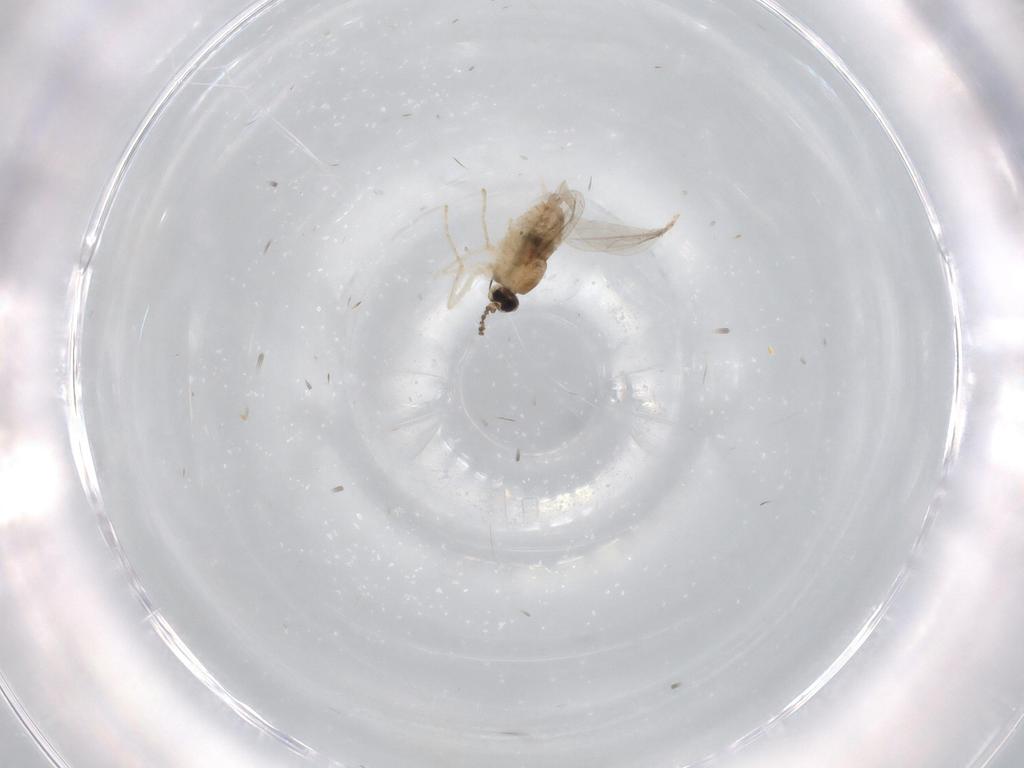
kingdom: Animalia
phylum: Arthropoda
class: Insecta
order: Diptera
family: Cecidomyiidae
